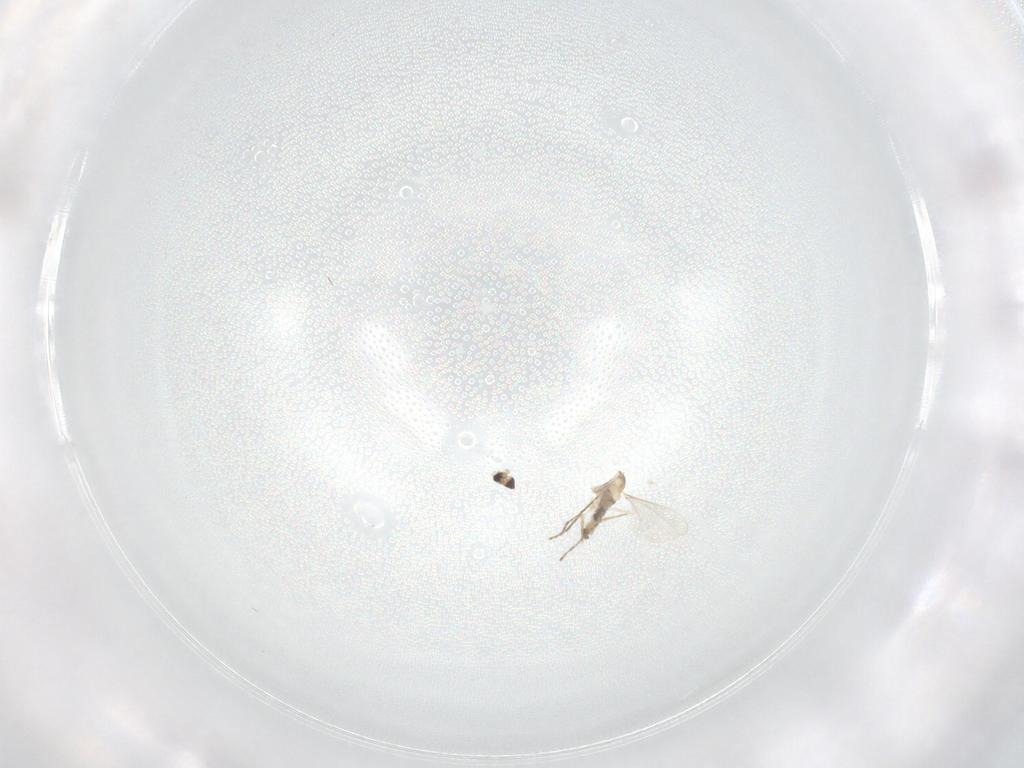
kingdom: Animalia
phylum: Arthropoda
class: Insecta
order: Diptera
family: Cecidomyiidae
